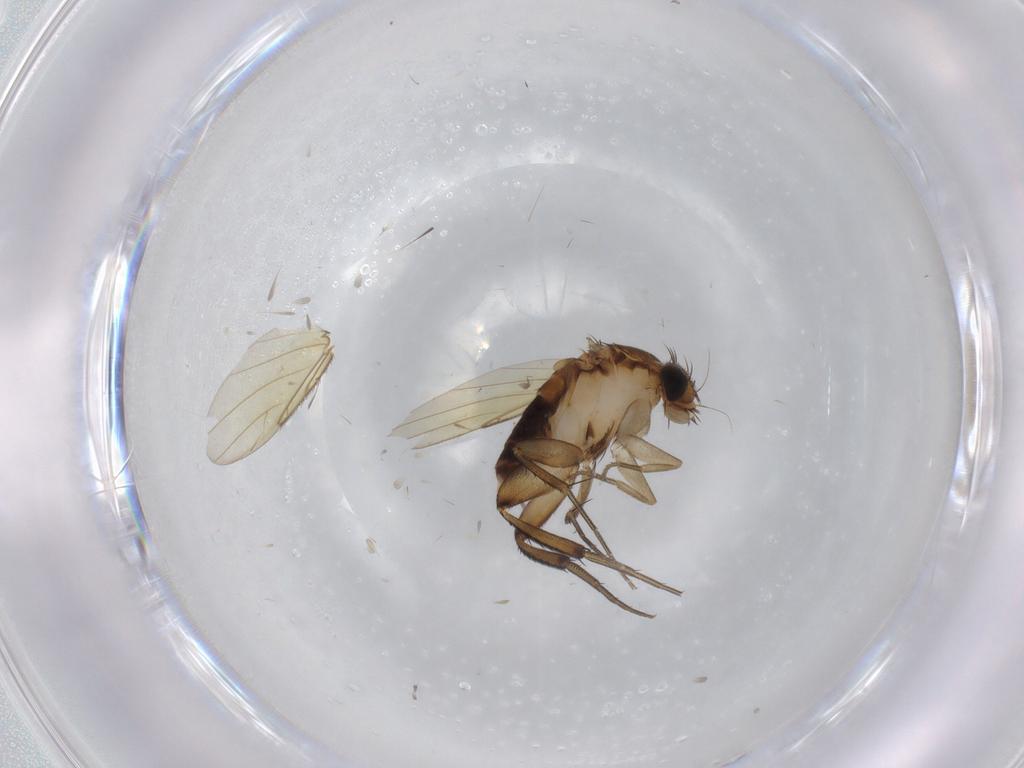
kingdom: Animalia
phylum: Arthropoda
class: Insecta
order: Diptera
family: Phoridae
